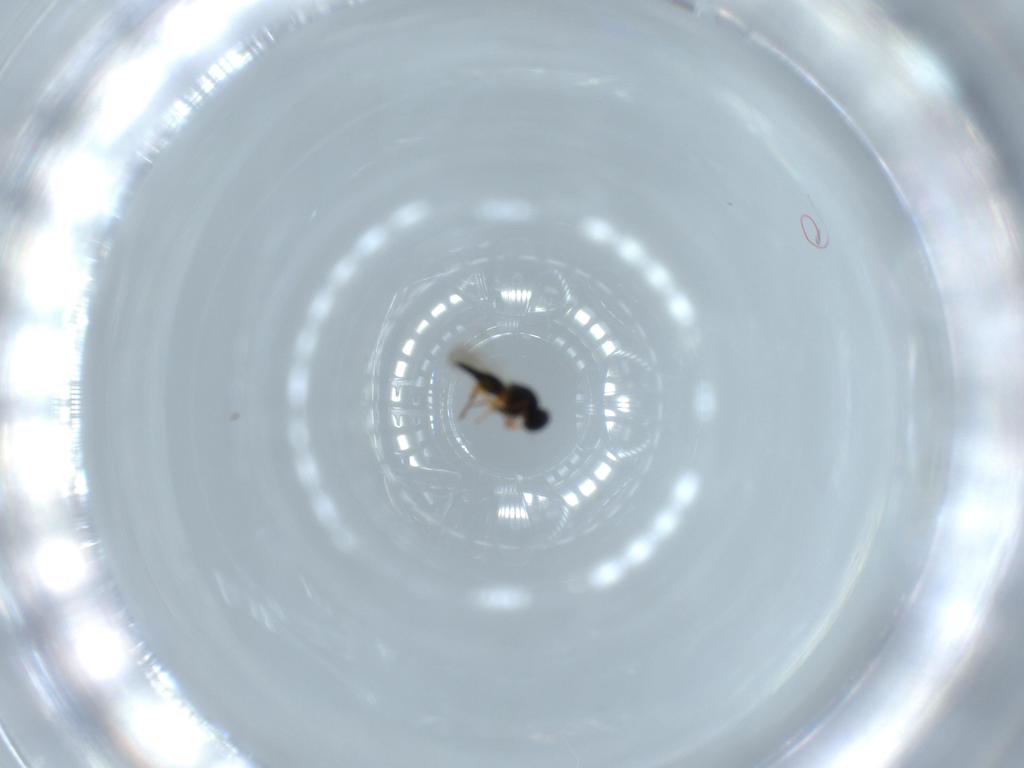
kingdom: Animalia
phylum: Arthropoda
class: Insecta
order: Hymenoptera
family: Platygastridae
